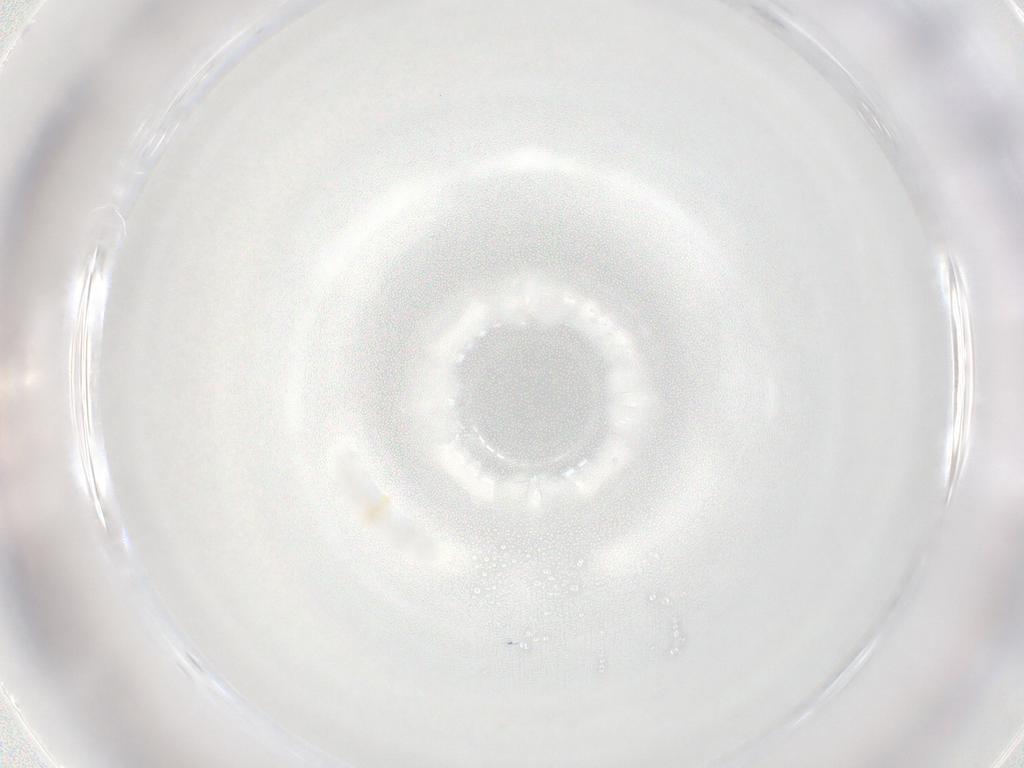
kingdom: Animalia
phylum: Arthropoda
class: Arachnida
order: Trombidiformes
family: Eupodidae
